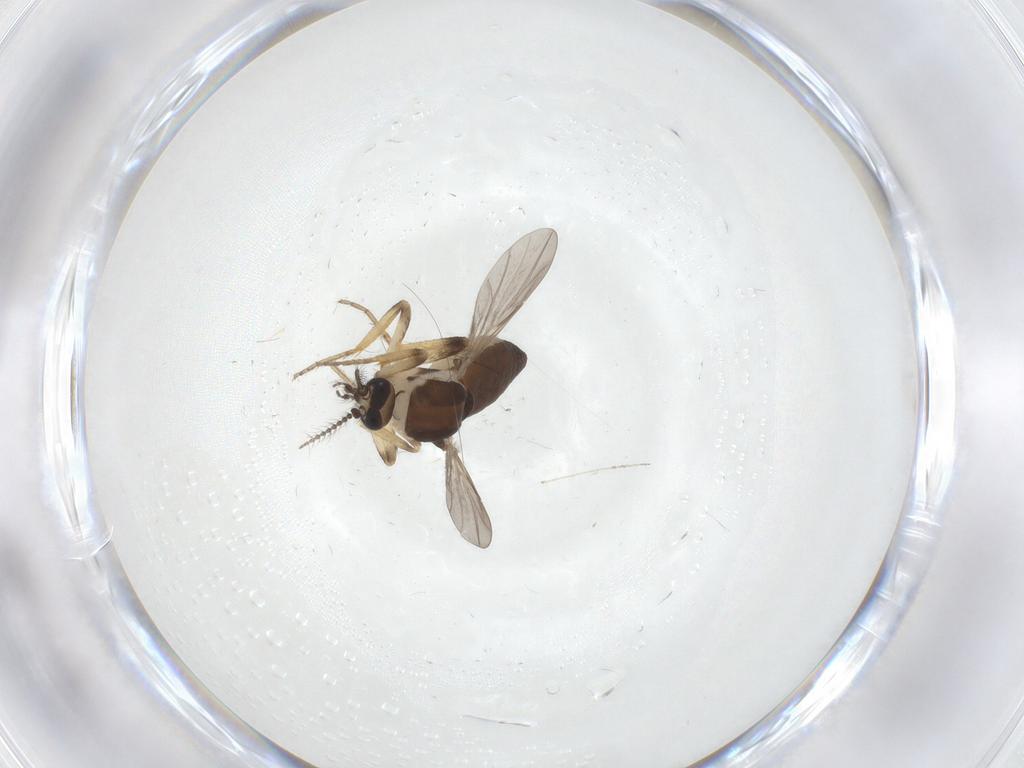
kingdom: Animalia
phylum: Arthropoda
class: Insecta
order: Diptera
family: Ceratopogonidae
